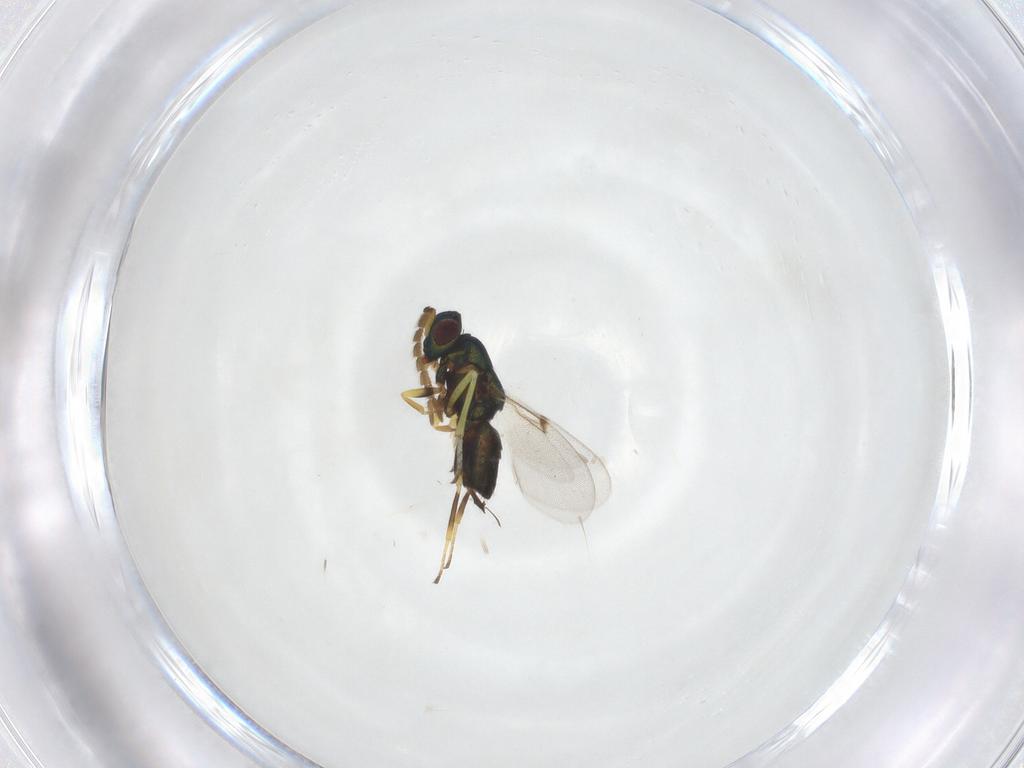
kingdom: Animalia
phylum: Arthropoda
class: Insecta
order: Hymenoptera
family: Encyrtidae
